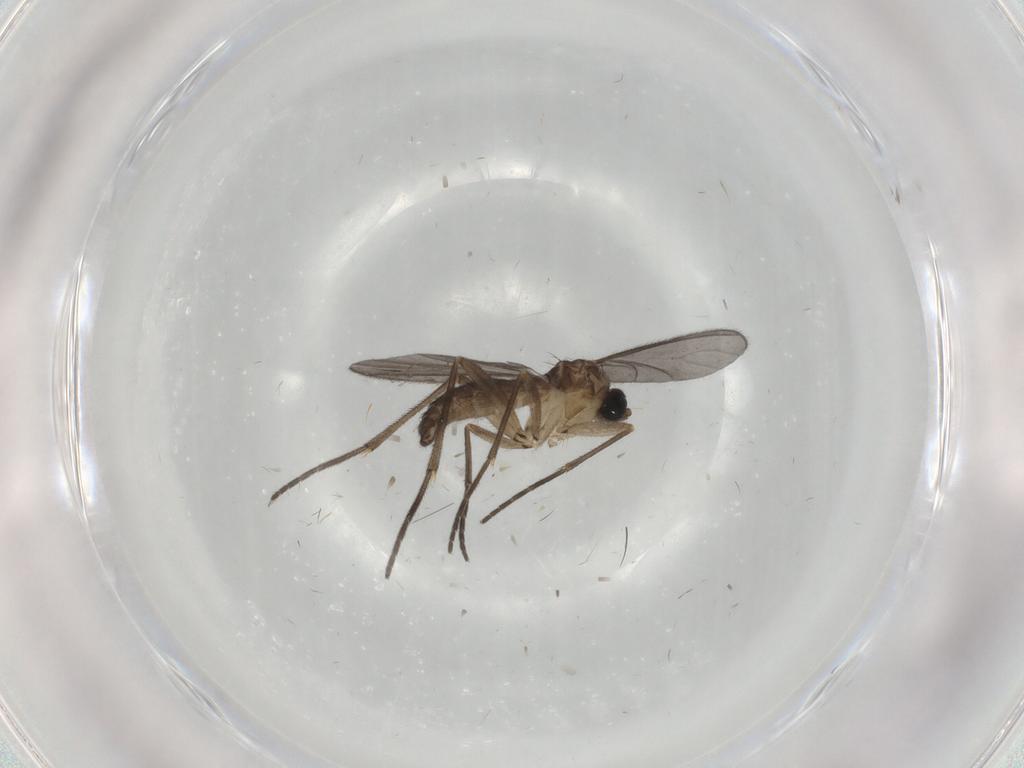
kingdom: Animalia
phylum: Arthropoda
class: Insecta
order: Diptera
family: Sciaridae
